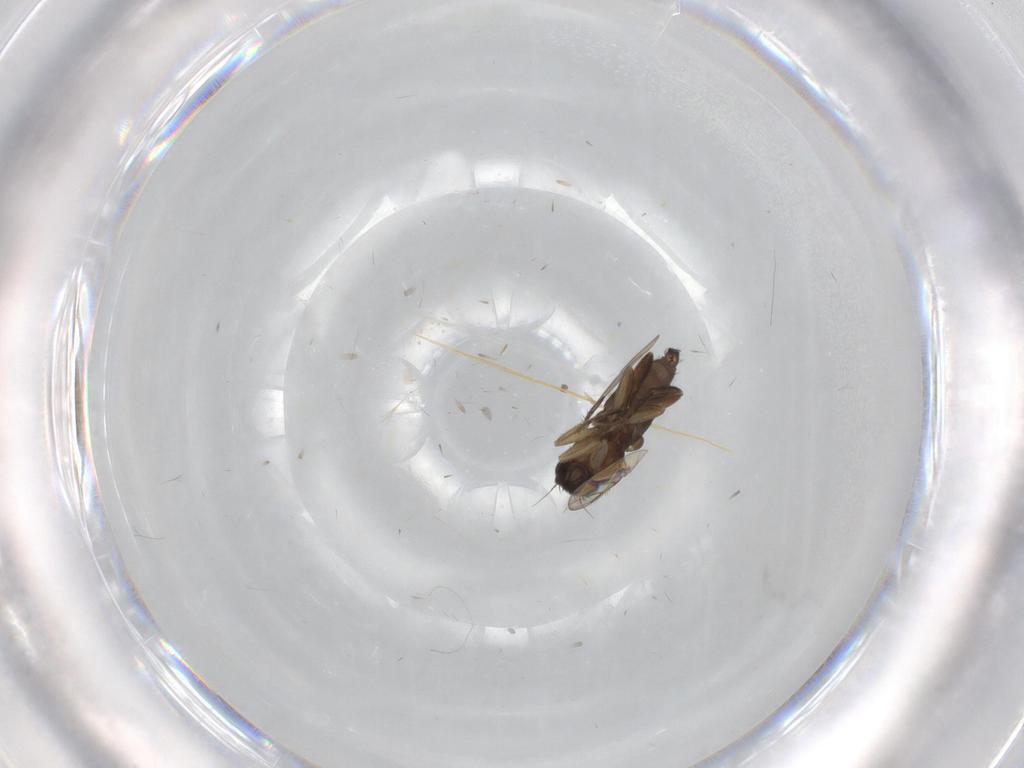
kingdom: Animalia
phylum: Arthropoda
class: Insecta
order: Diptera
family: Phoridae
